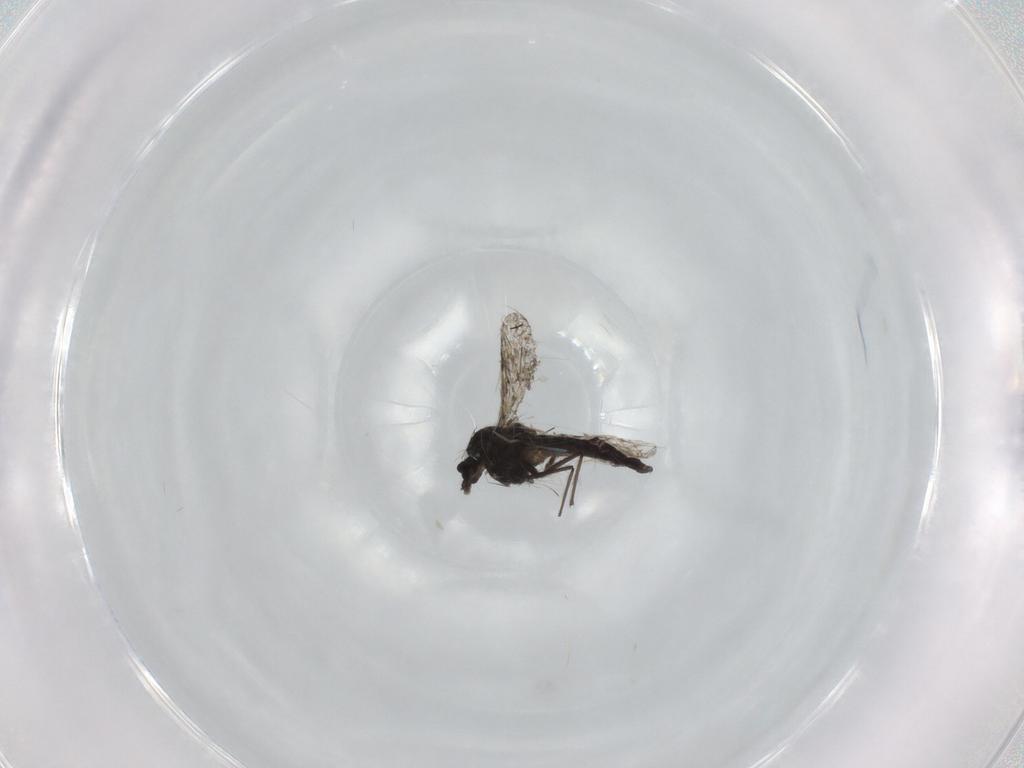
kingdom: Animalia
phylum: Arthropoda
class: Insecta
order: Diptera
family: Chironomidae
